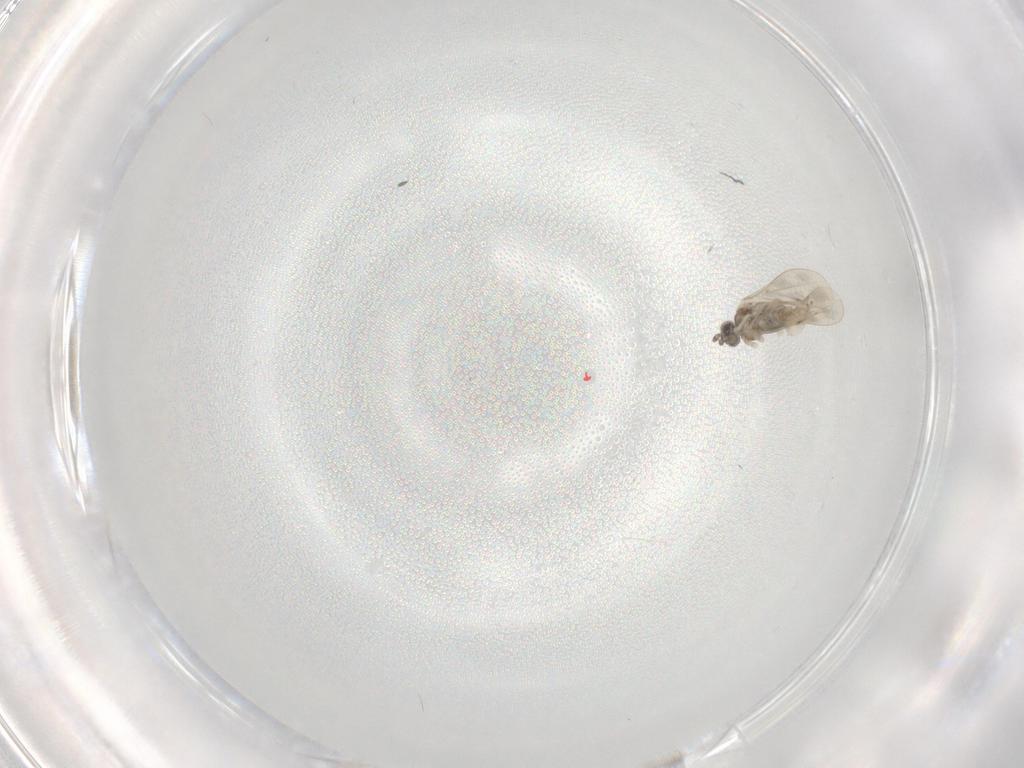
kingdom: Animalia
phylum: Arthropoda
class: Insecta
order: Diptera
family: Cecidomyiidae
